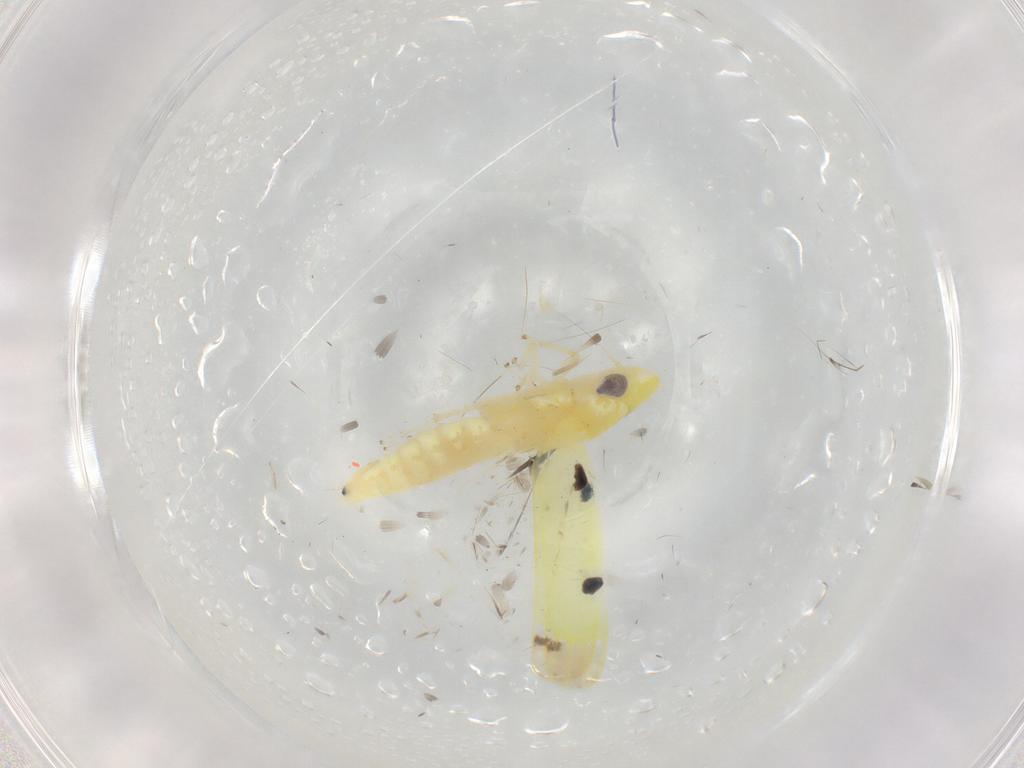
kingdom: Animalia
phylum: Arthropoda
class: Insecta
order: Hemiptera
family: Cicadellidae
